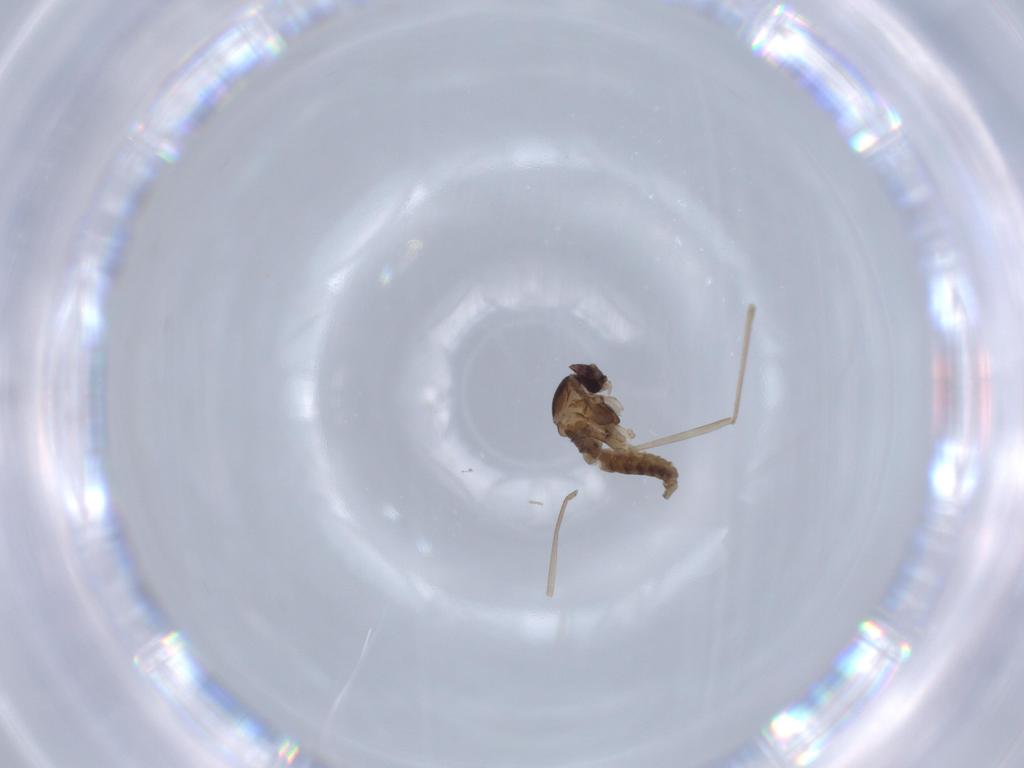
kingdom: Animalia
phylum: Arthropoda
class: Insecta
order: Diptera
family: Cecidomyiidae
